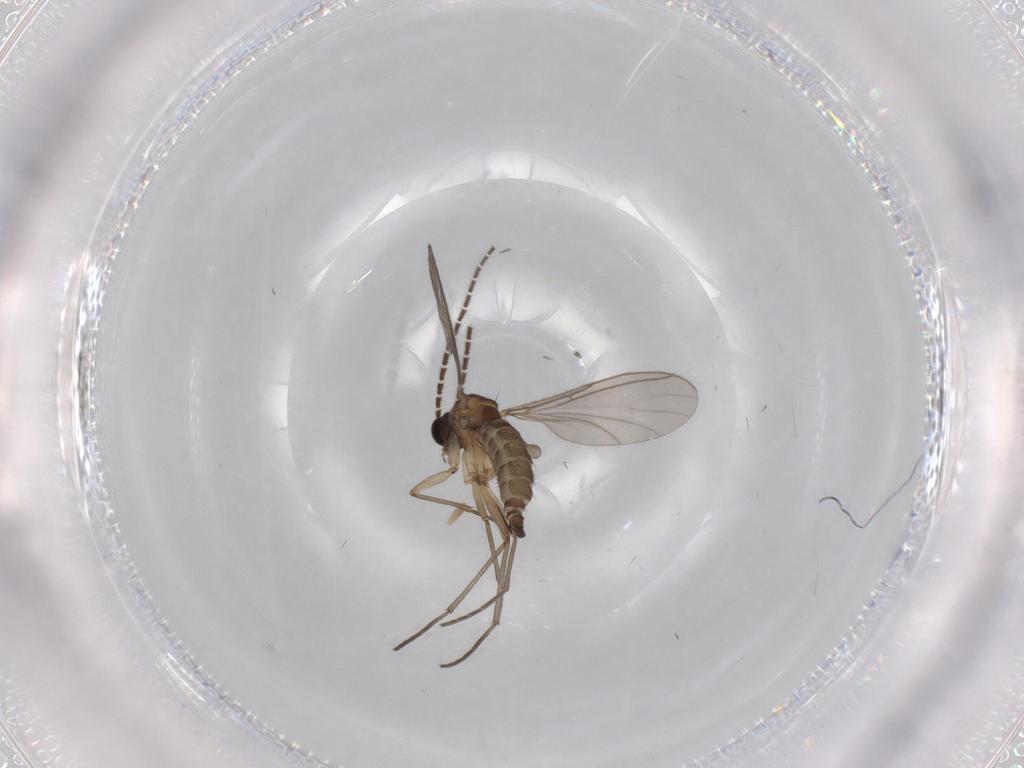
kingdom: Animalia
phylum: Arthropoda
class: Insecta
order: Diptera
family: Sciaridae
